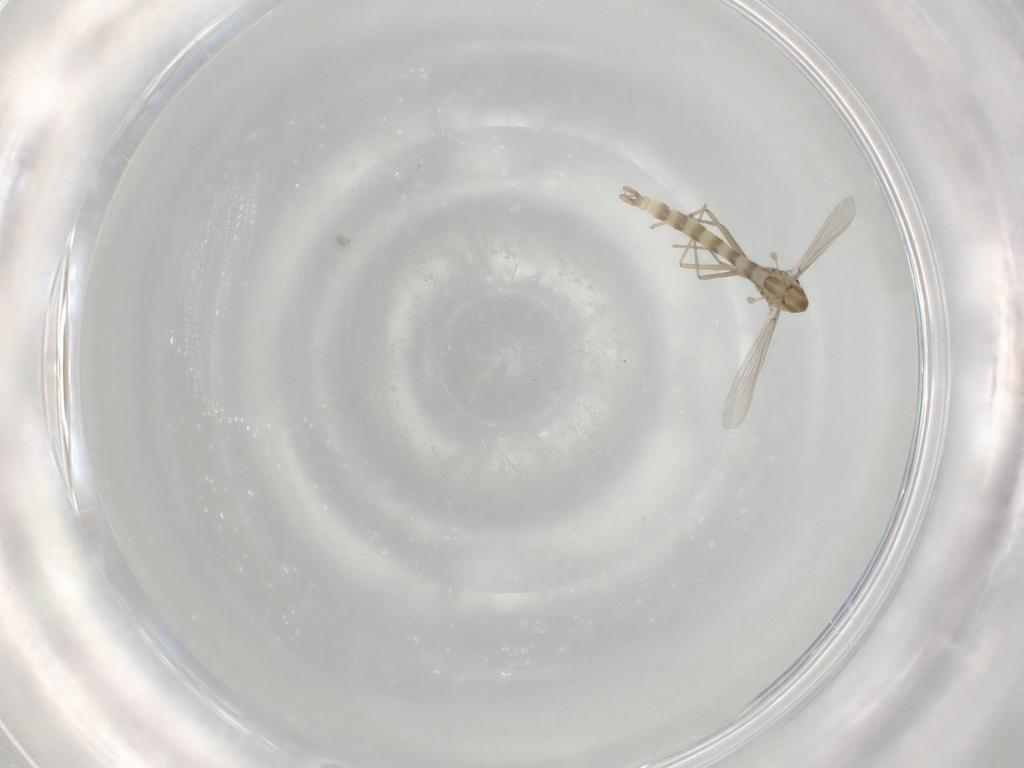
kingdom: Animalia
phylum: Arthropoda
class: Insecta
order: Diptera
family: Chironomidae
